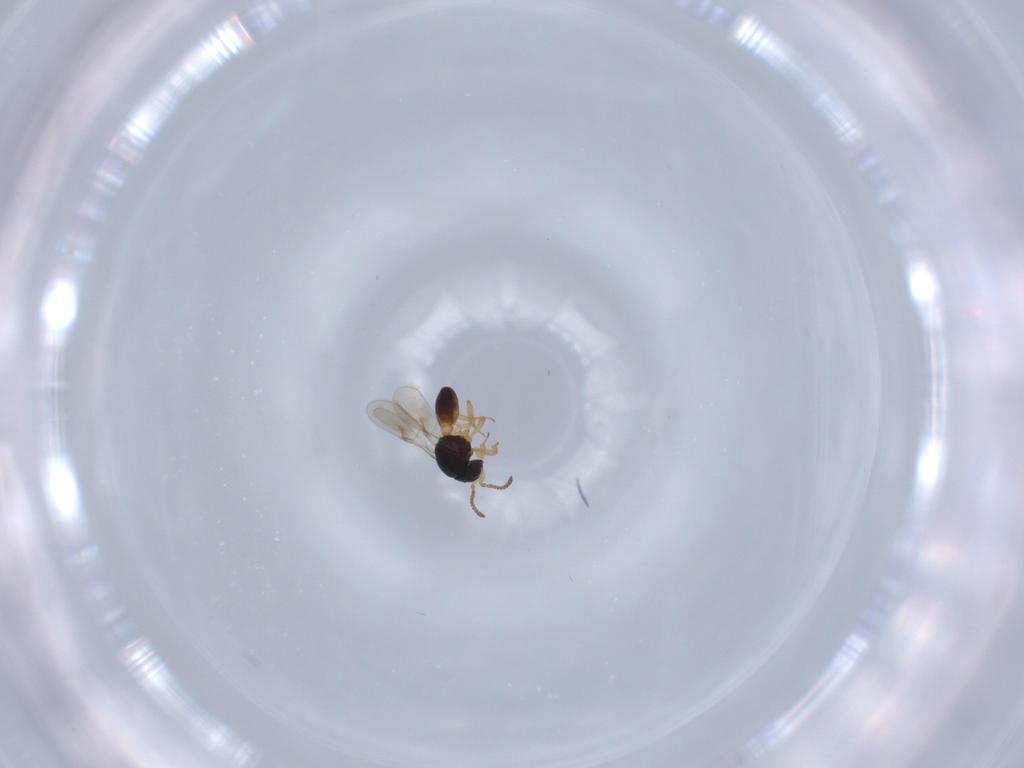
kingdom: Animalia
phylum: Arthropoda
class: Insecta
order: Hymenoptera
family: Scelionidae
